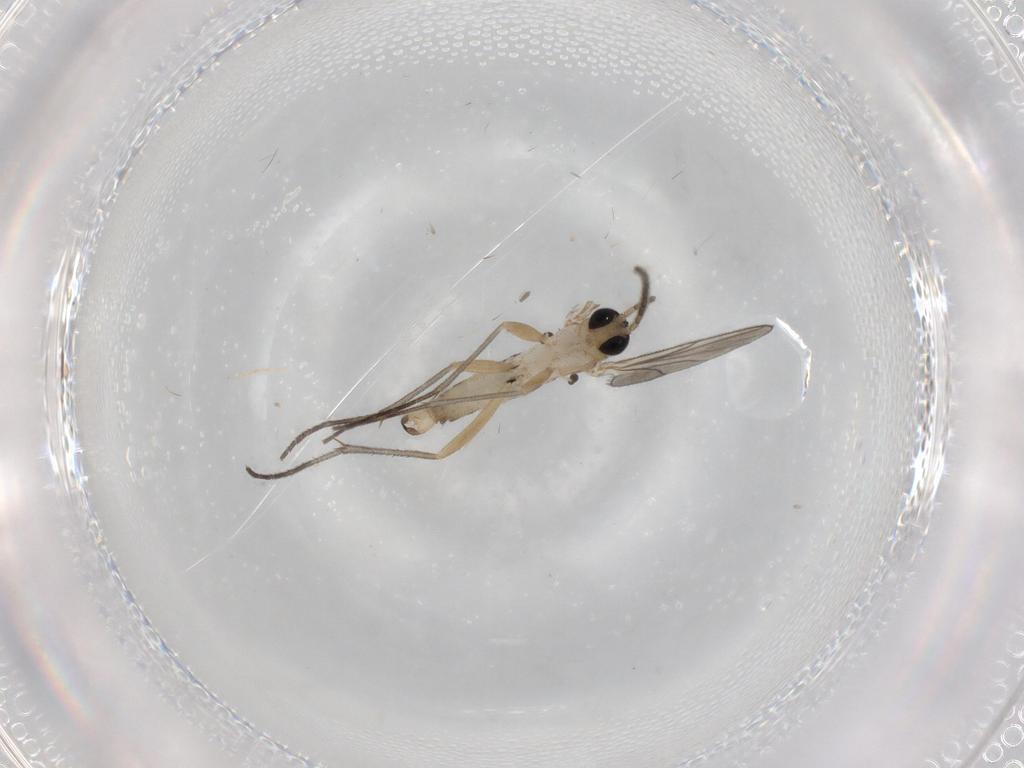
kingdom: Animalia
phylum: Arthropoda
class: Insecta
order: Diptera
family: Sciaridae
